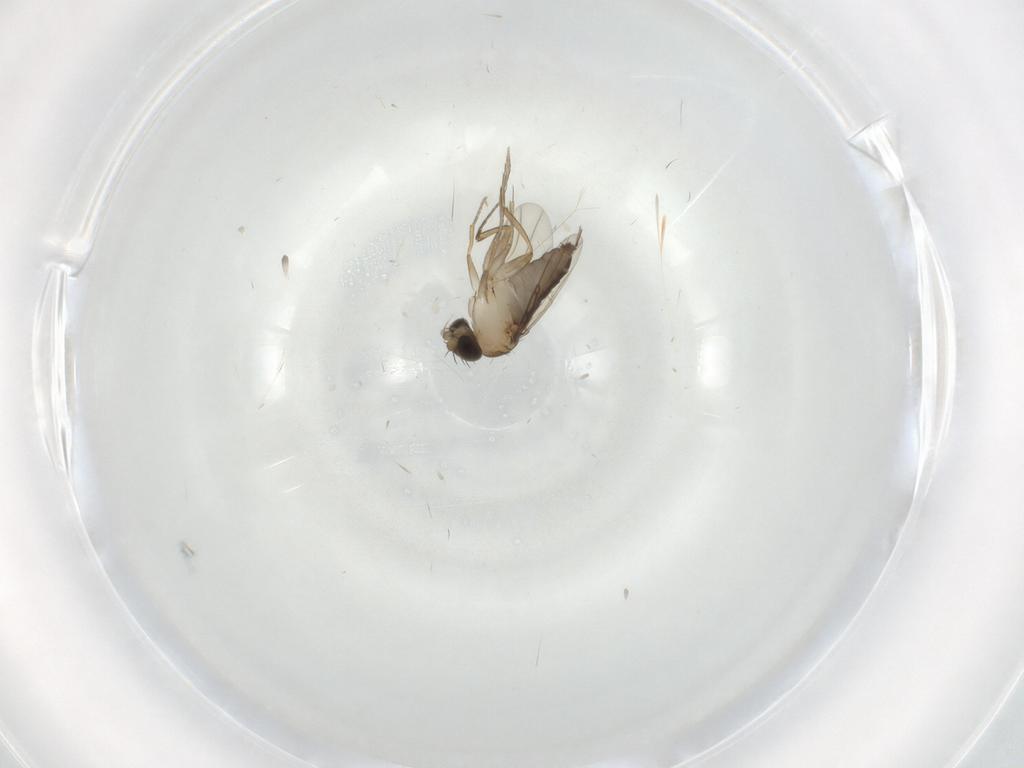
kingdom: Animalia
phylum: Arthropoda
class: Insecta
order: Diptera
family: Phoridae
